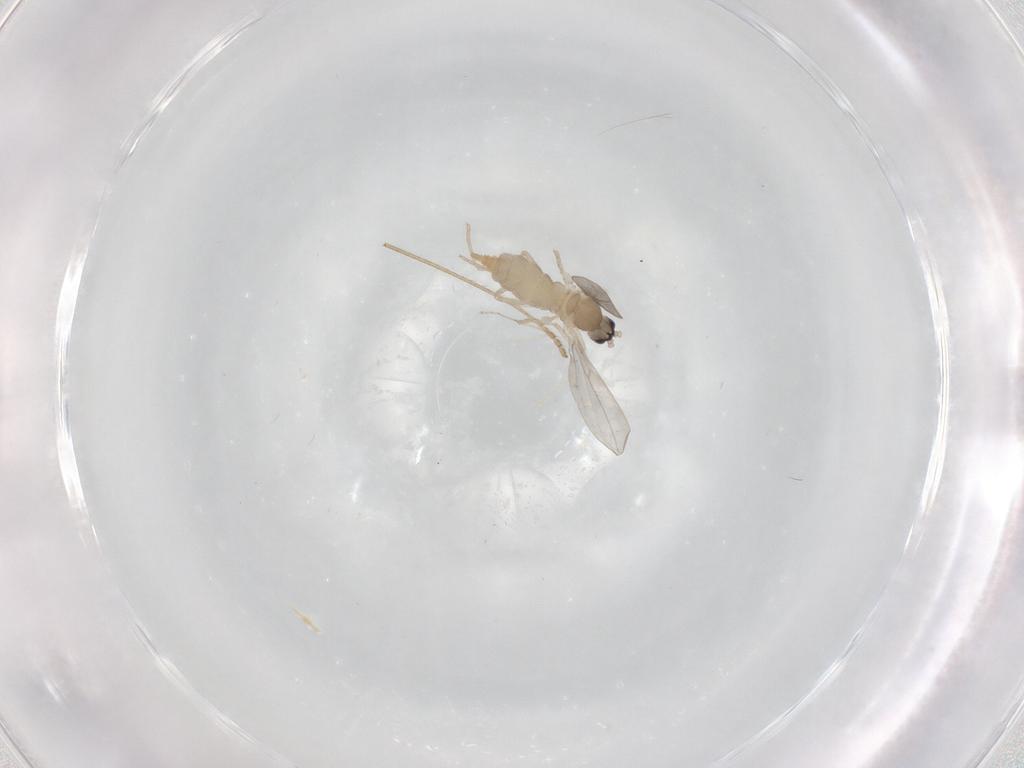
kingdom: Animalia
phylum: Arthropoda
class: Insecta
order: Diptera
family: Cecidomyiidae
